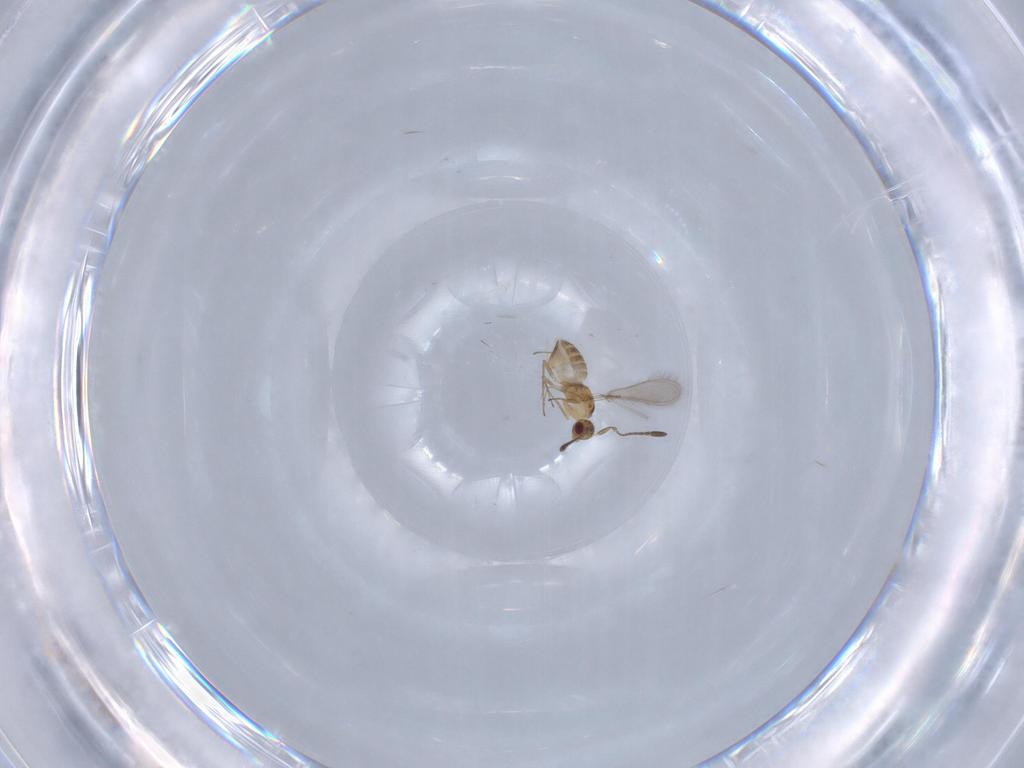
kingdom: Animalia
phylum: Arthropoda
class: Insecta
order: Hymenoptera
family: Mymaridae
